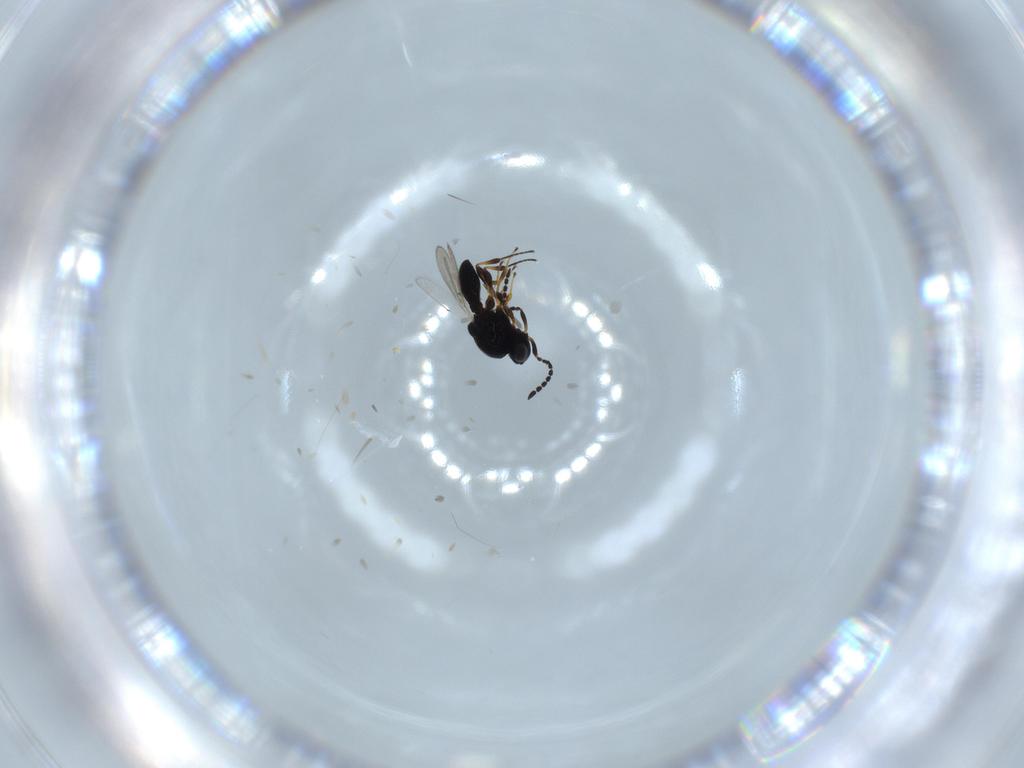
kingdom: Animalia
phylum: Arthropoda
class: Insecta
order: Hymenoptera
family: Platygastridae
